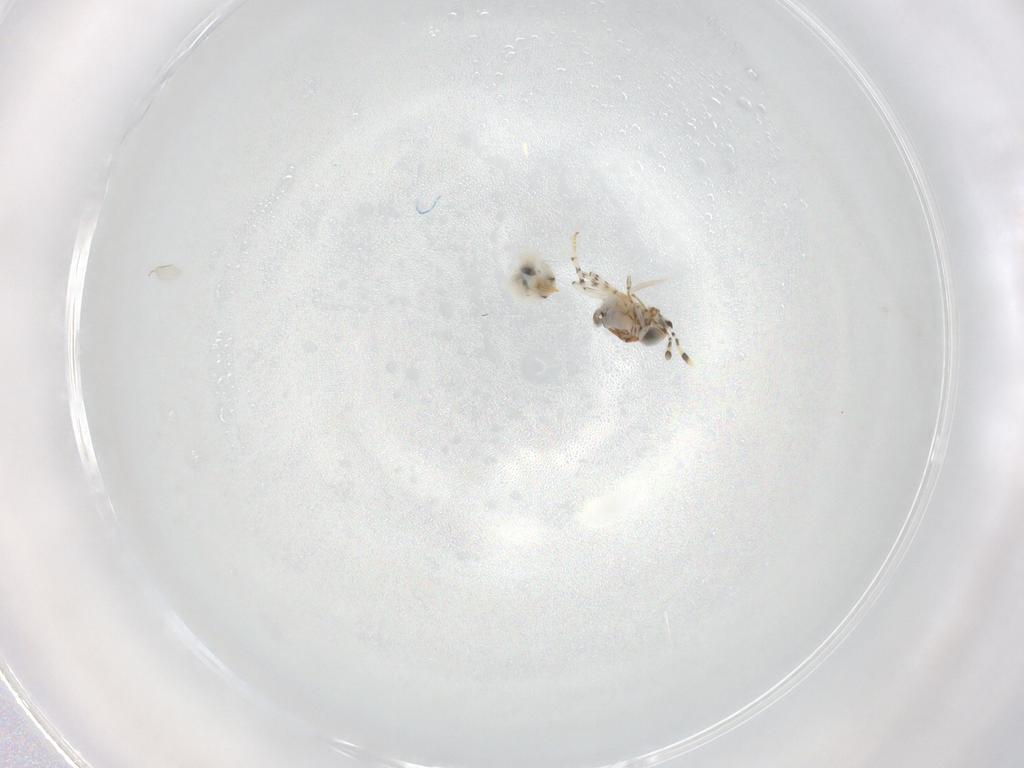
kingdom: Animalia
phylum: Arthropoda
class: Insecta
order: Hymenoptera
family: Encyrtidae
